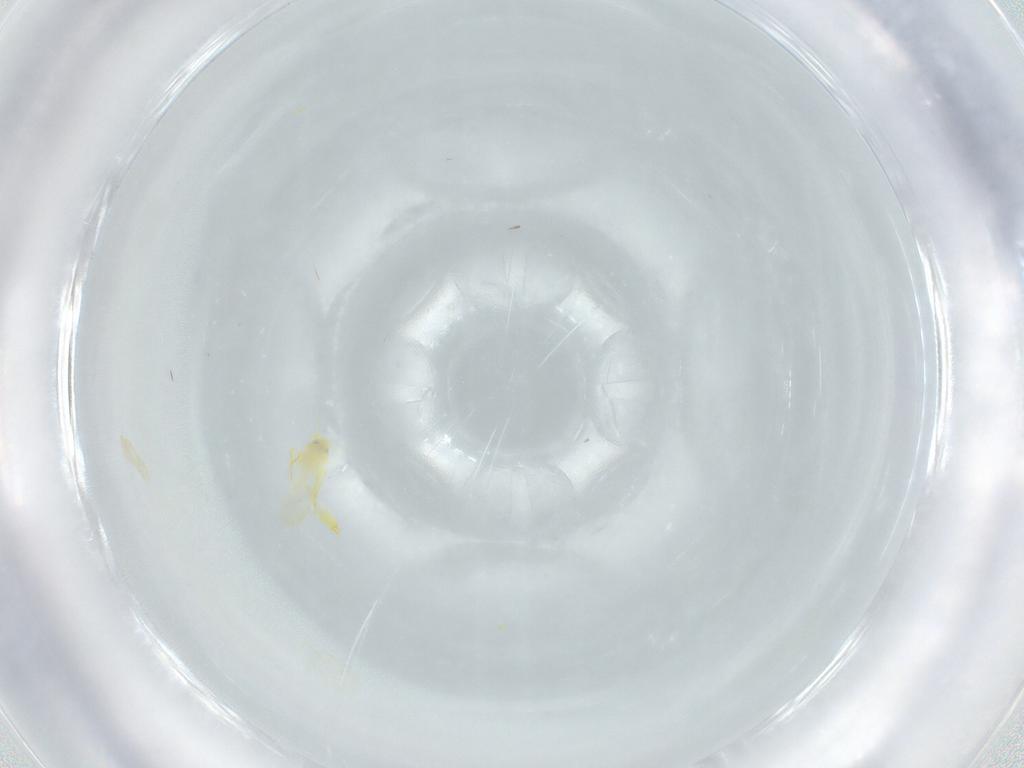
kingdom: Animalia
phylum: Arthropoda
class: Insecta
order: Hemiptera
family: Aleyrodidae
